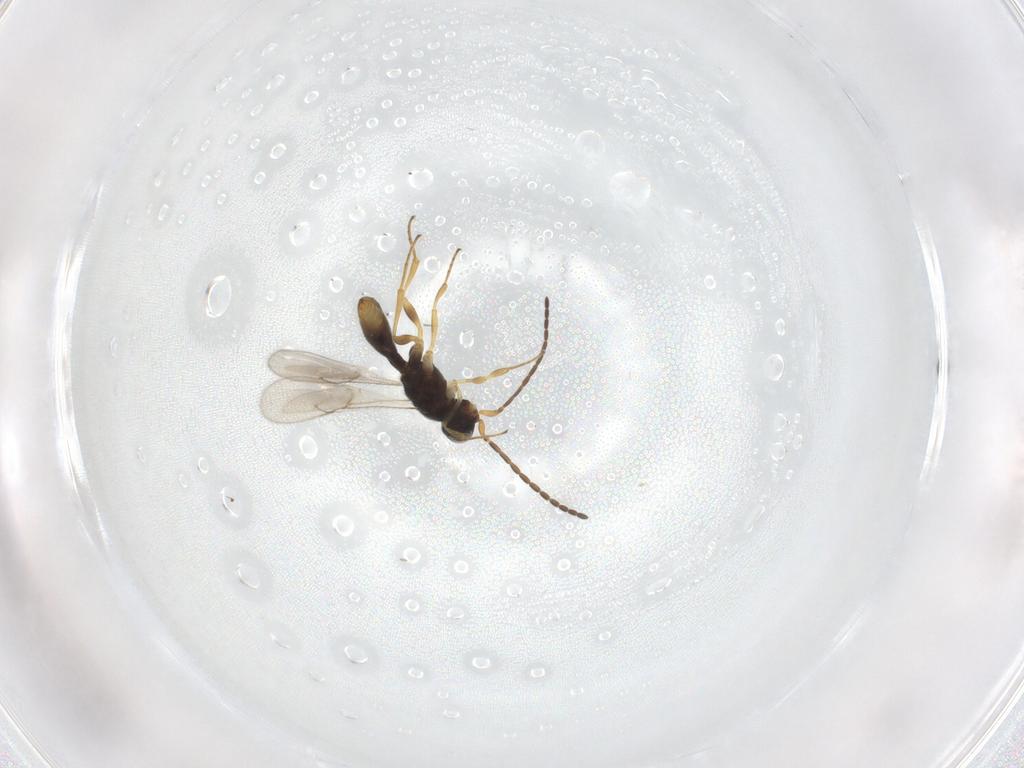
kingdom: Animalia
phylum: Arthropoda
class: Insecta
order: Hymenoptera
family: Scelionidae
